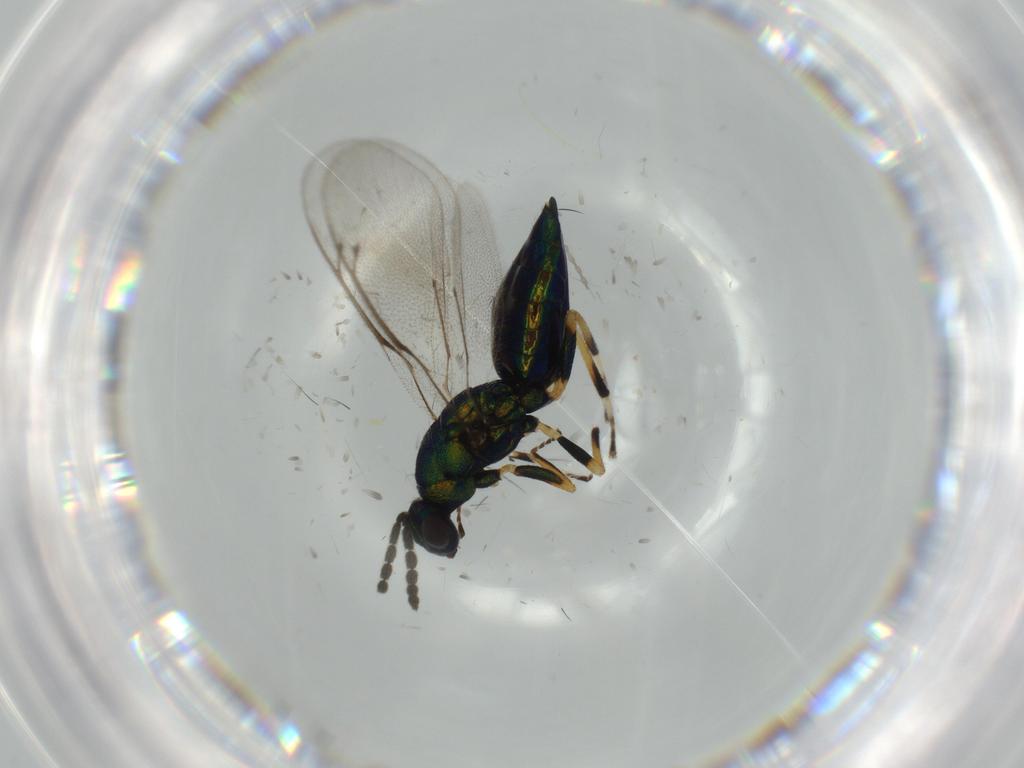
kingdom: Animalia
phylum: Arthropoda
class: Insecta
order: Hymenoptera
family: Eulophidae
